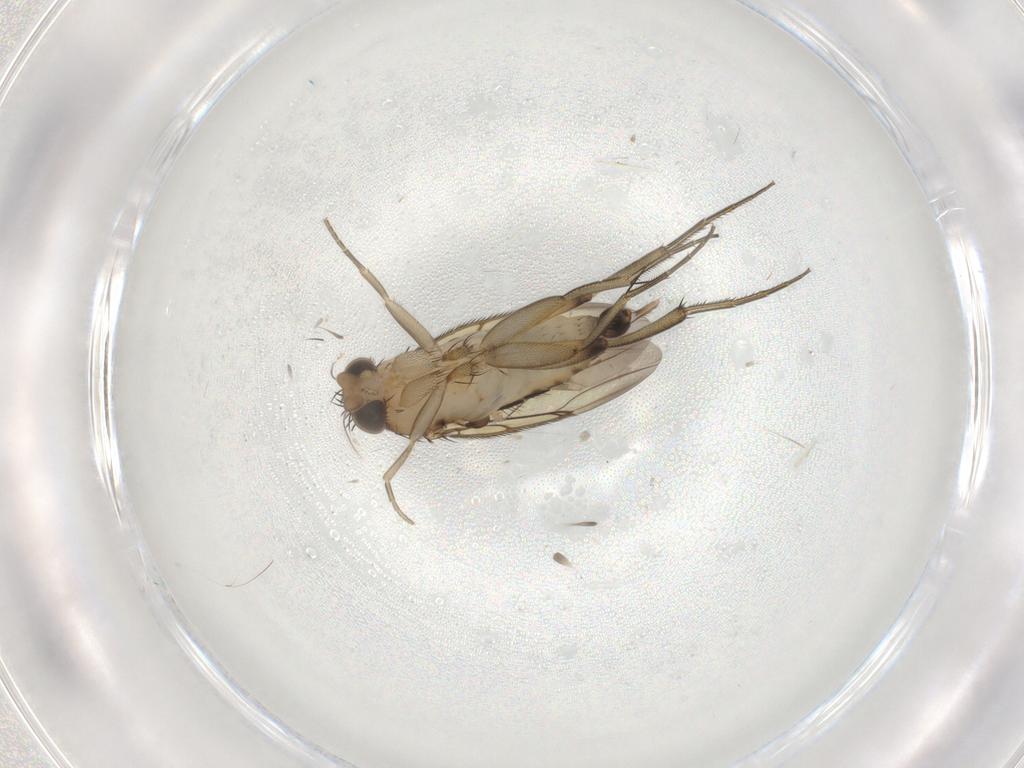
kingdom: Animalia
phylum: Arthropoda
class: Insecta
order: Diptera
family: Phoridae
